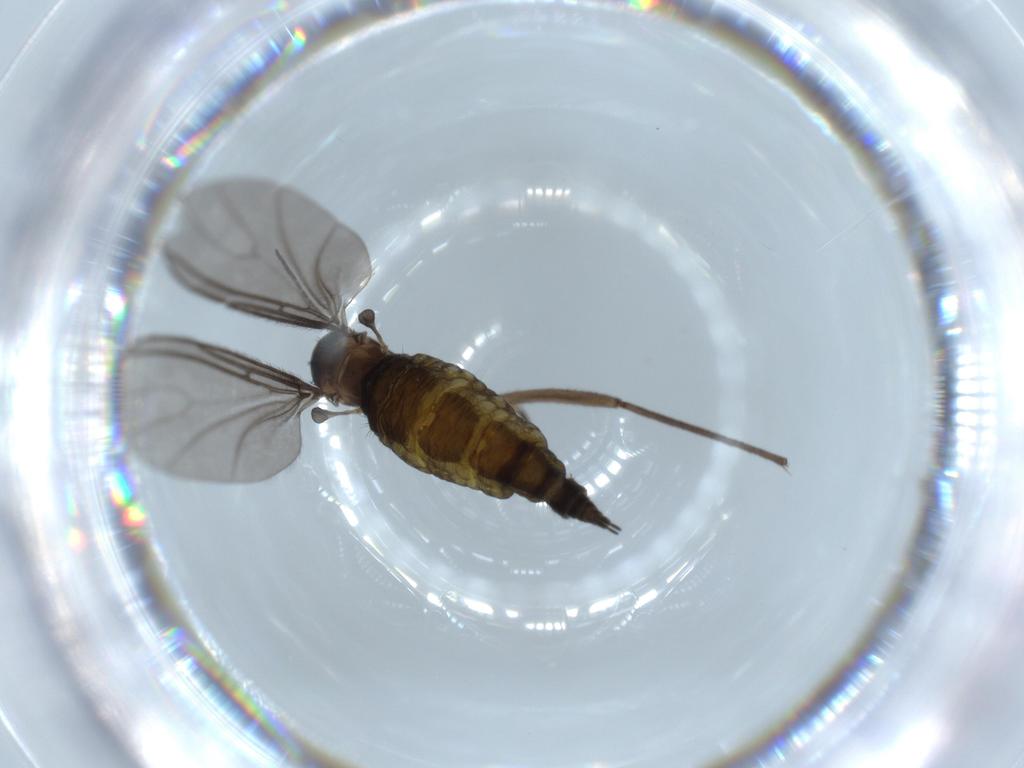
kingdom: Animalia
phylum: Arthropoda
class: Insecta
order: Diptera
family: Sciaridae
